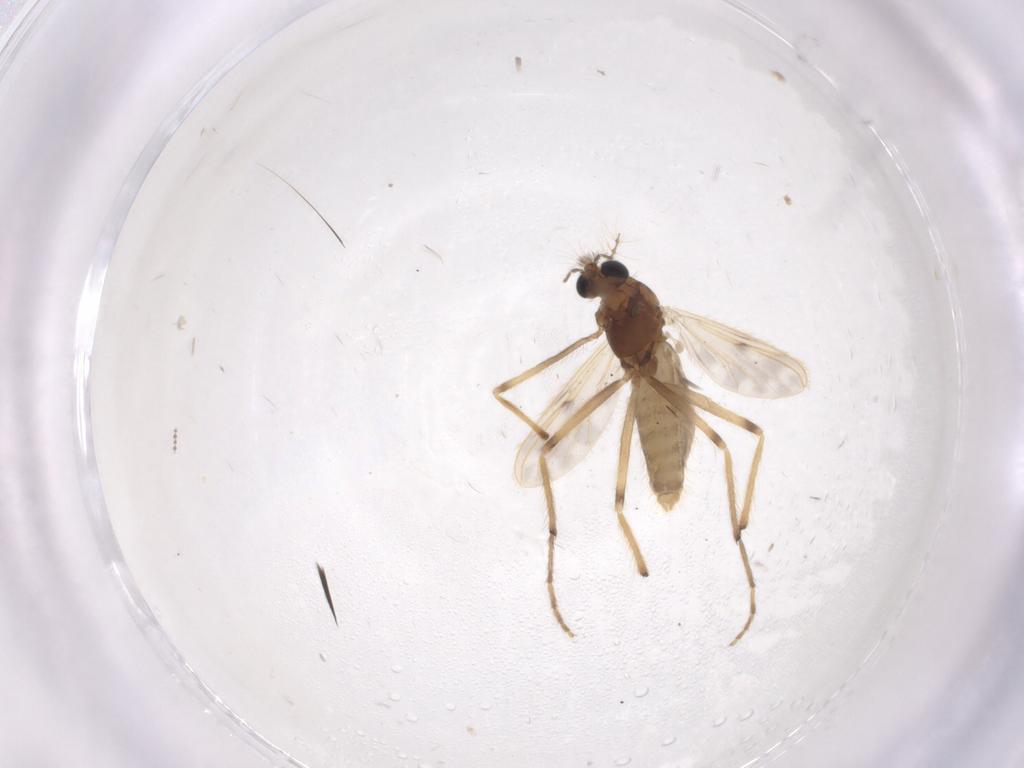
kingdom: Animalia
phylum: Arthropoda
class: Insecta
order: Diptera
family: Chironomidae
